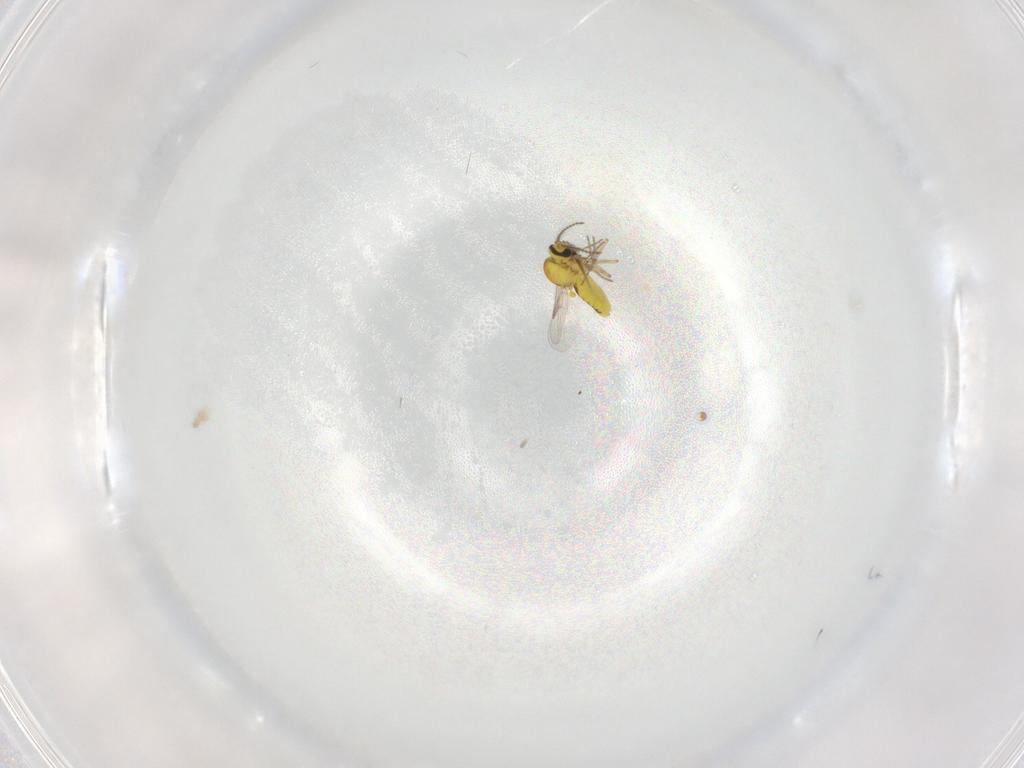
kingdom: Animalia
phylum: Arthropoda
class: Insecta
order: Diptera
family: Ceratopogonidae
